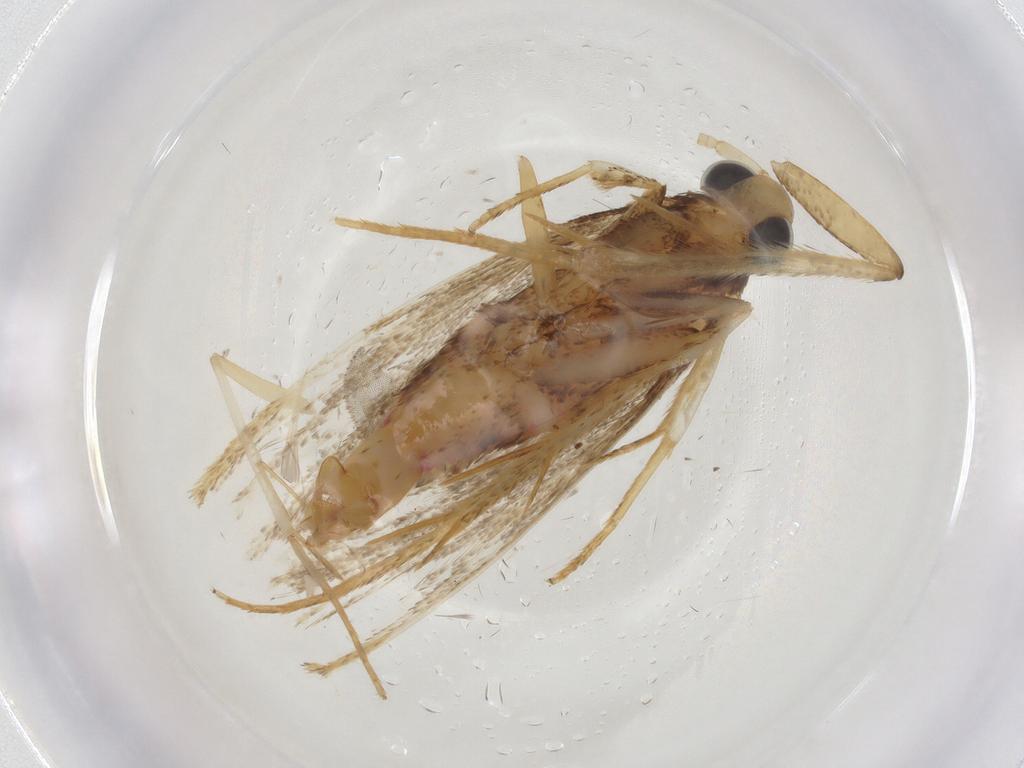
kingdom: Animalia
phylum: Arthropoda
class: Insecta
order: Lepidoptera
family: Lecithoceridae
